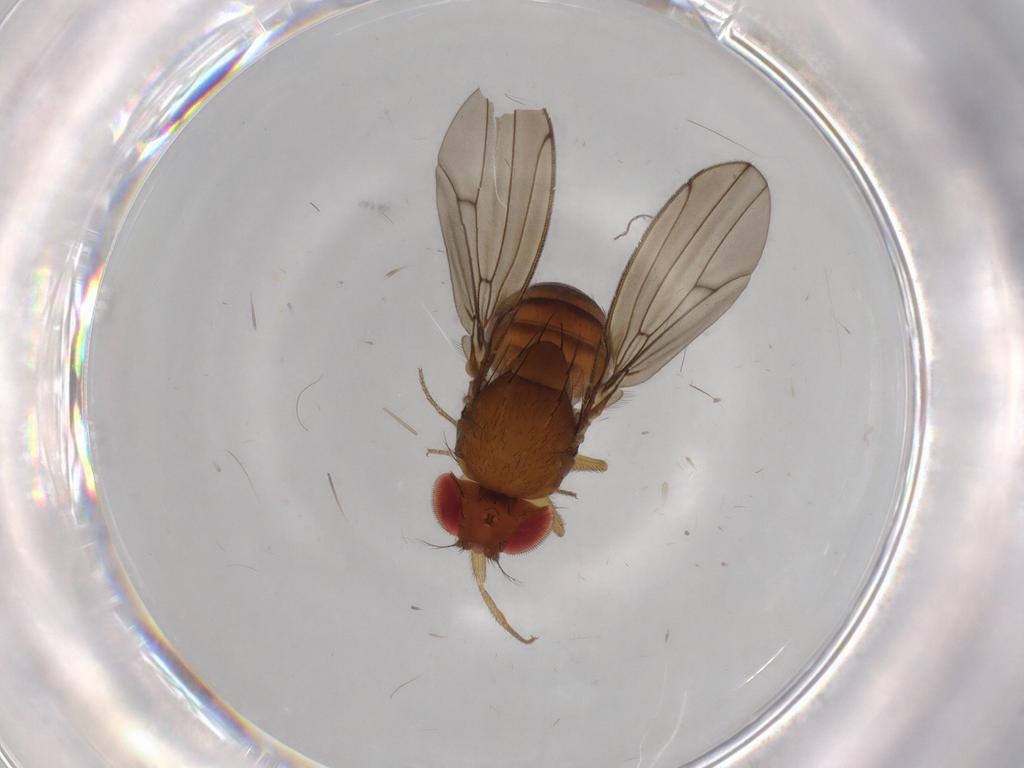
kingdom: Animalia
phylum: Arthropoda
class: Insecta
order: Diptera
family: Drosophilidae
